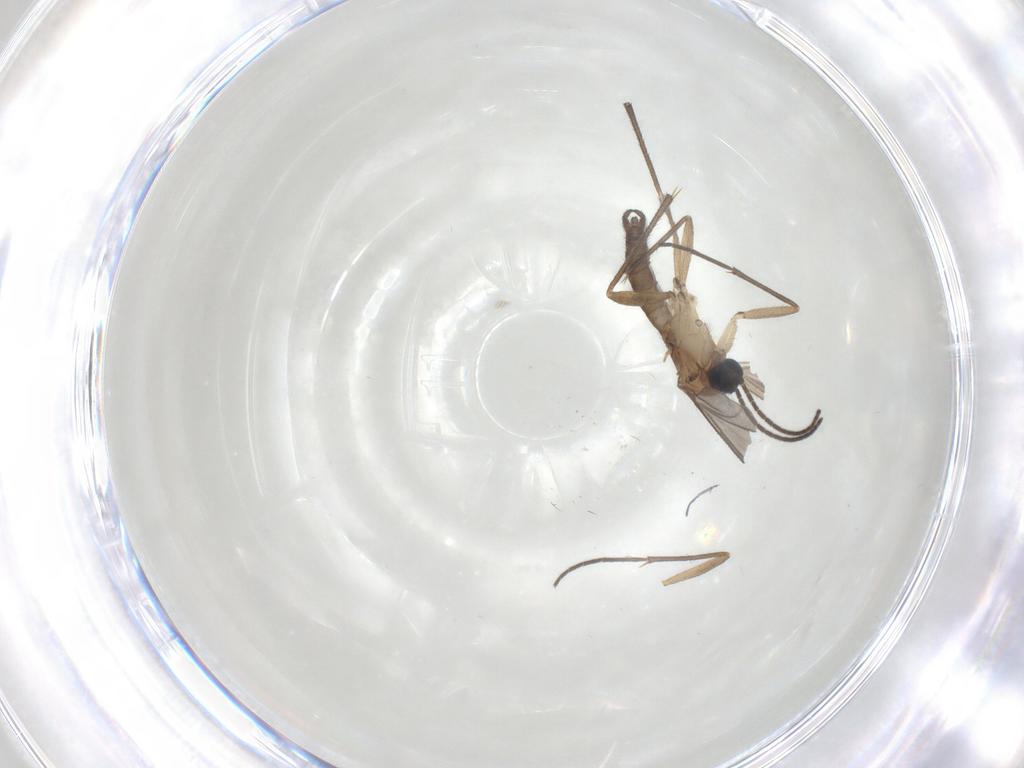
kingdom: Animalia
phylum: Arthropoda
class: Insecta
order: Diptera
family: Sciaridae
